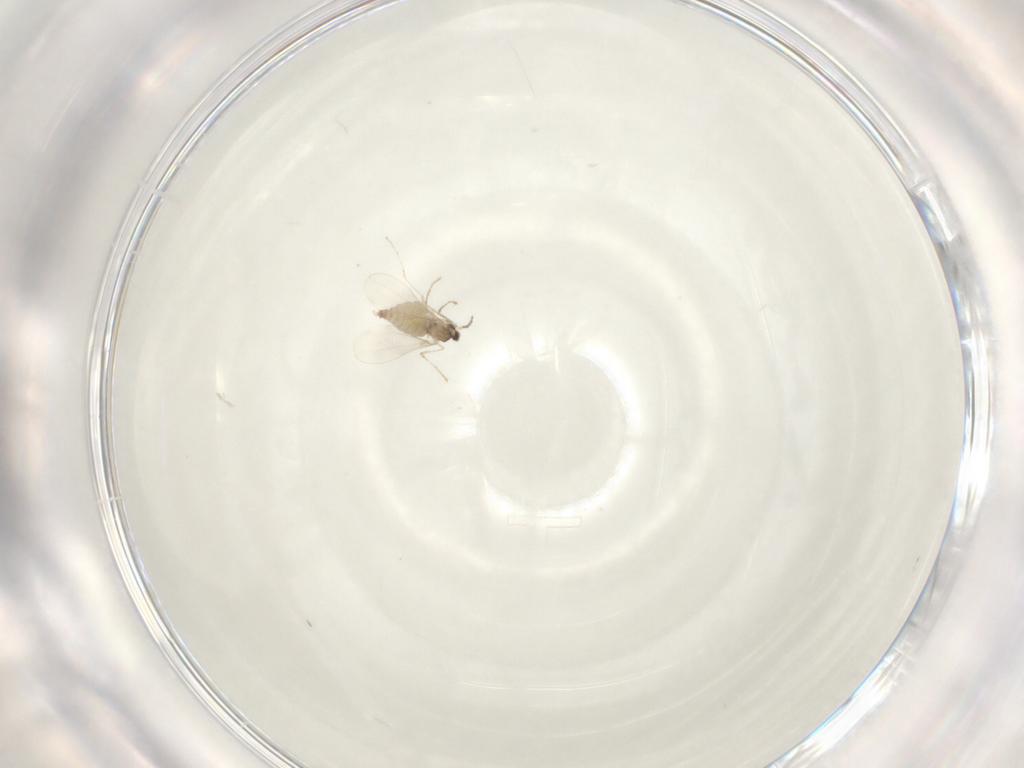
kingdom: Animalia
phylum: Arthropoda
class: Insecta
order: Diptera
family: Cecidomyiidae
